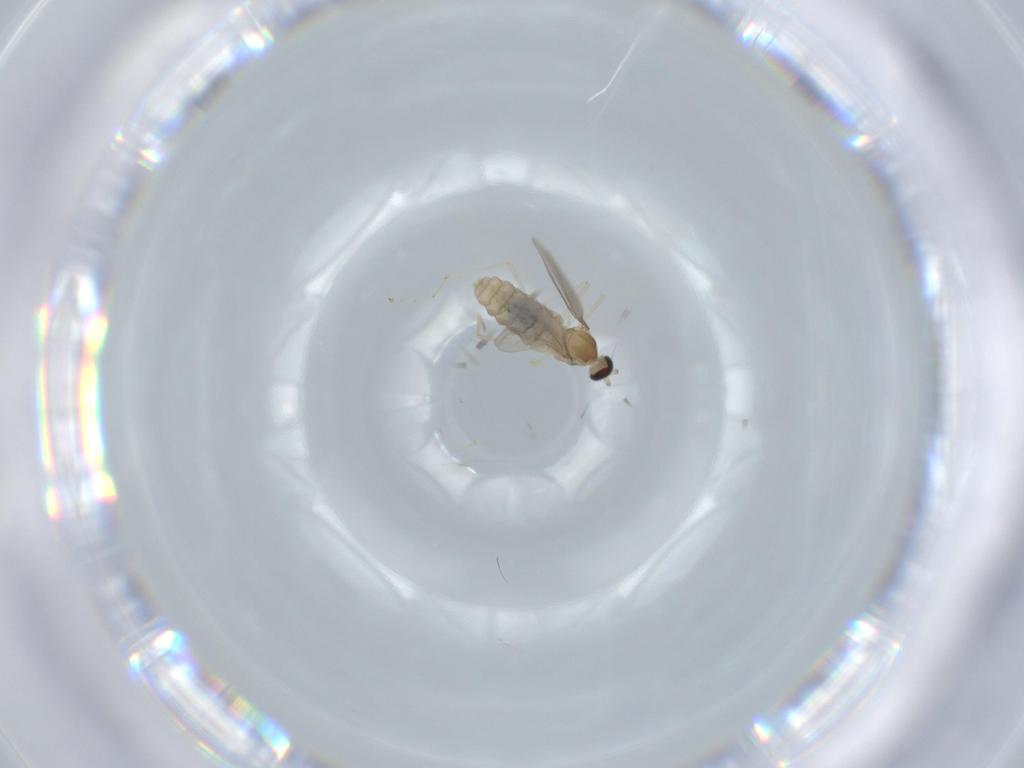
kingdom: Animalia
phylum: Arthropoda
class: Insecta
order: Diptera
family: Cecidomyiidae
